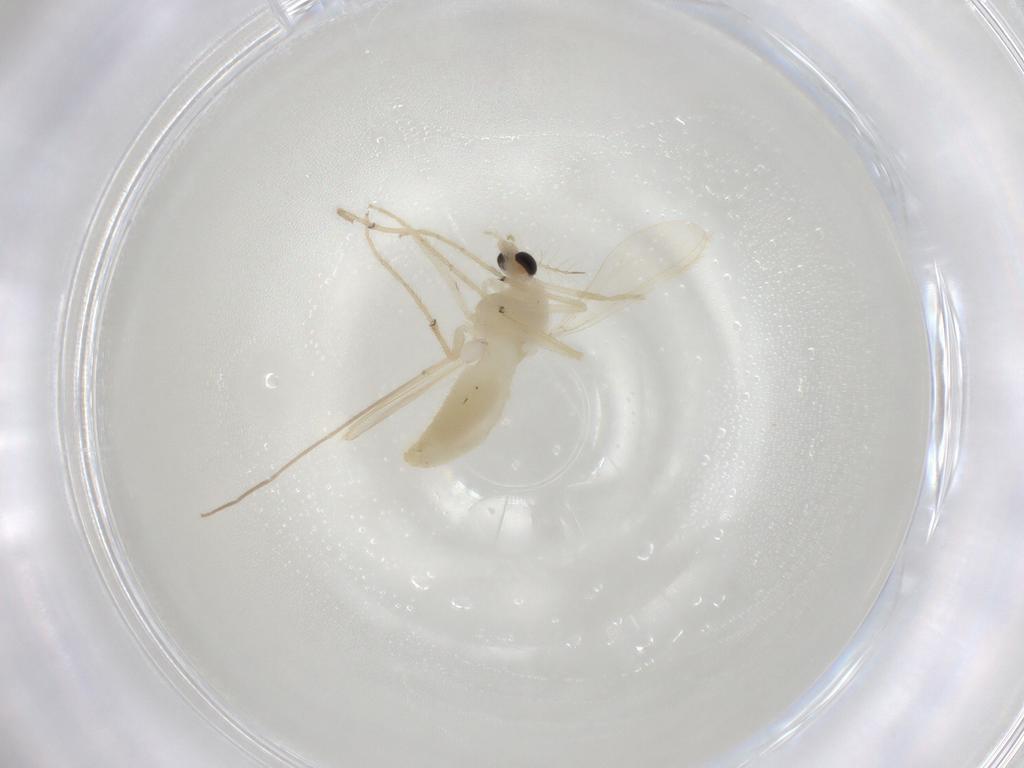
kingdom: Animalia
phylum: Arthropoda
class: Insecta
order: Diptera
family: Chironomidae
